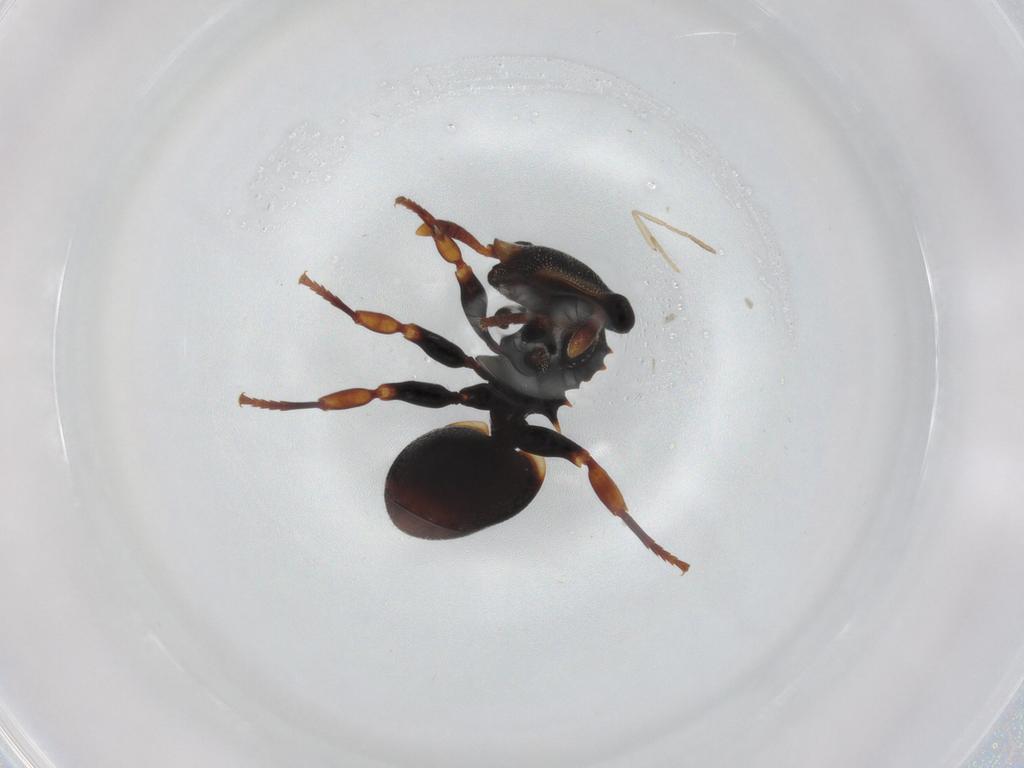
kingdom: Animalia
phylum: Arthropoda
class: Insecta
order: Hymenoptera
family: Formicidae
